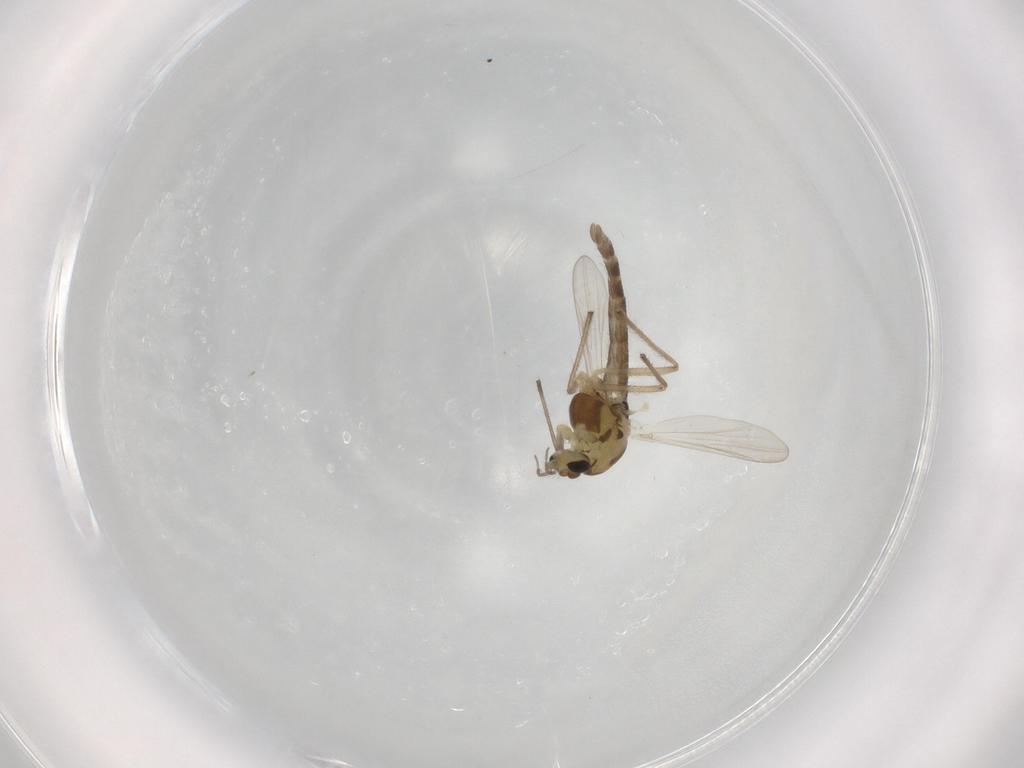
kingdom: Animalia
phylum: Arthropoda
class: Insecta
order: Diptera
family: Chironomidae
